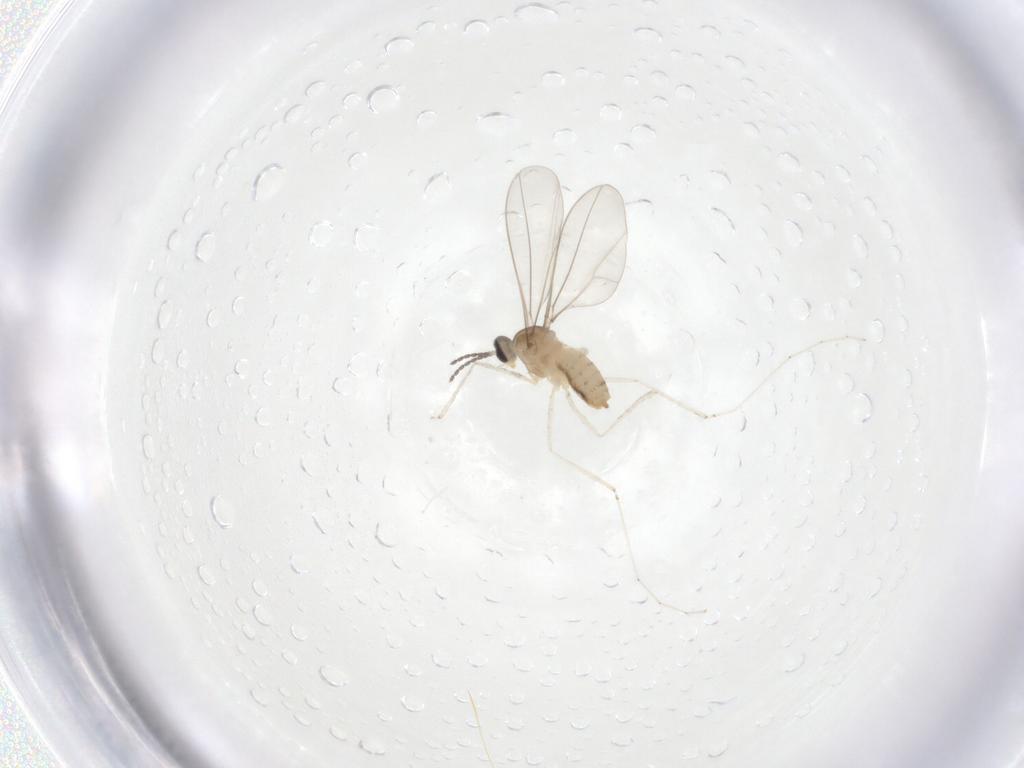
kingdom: Animalia
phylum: Arthropoda
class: Insecta
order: Diptera
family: Cecidomyiidae
